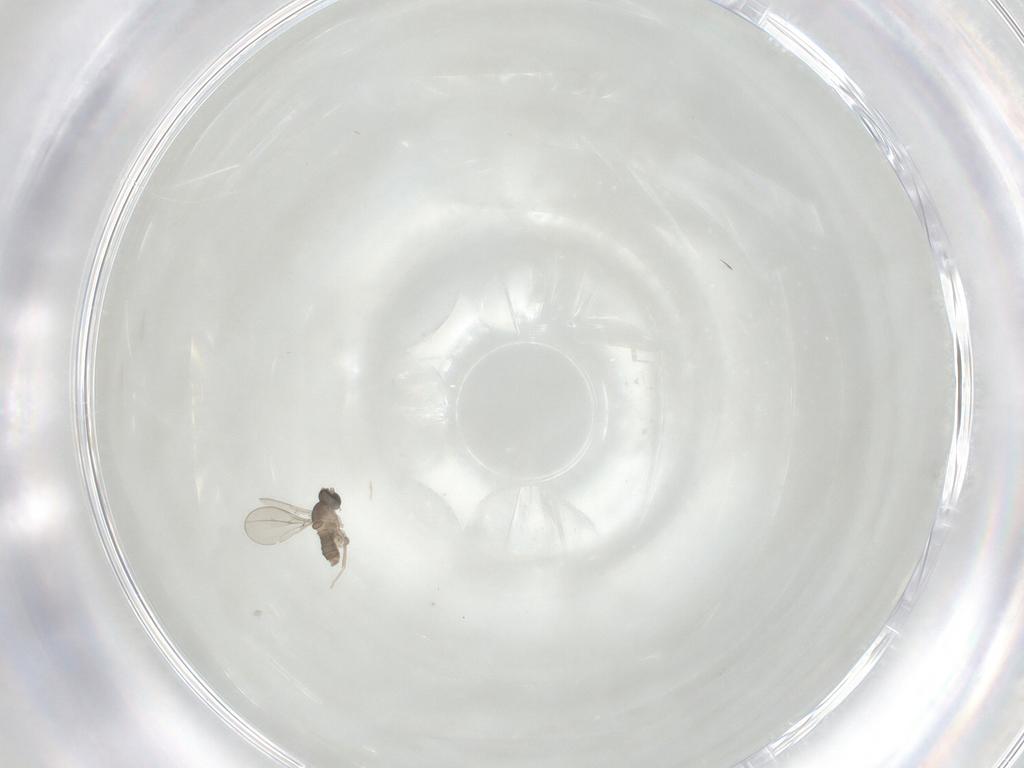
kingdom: Animalia
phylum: Arthropoda
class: Insecta
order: Diptera
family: Cecidomyiidae
